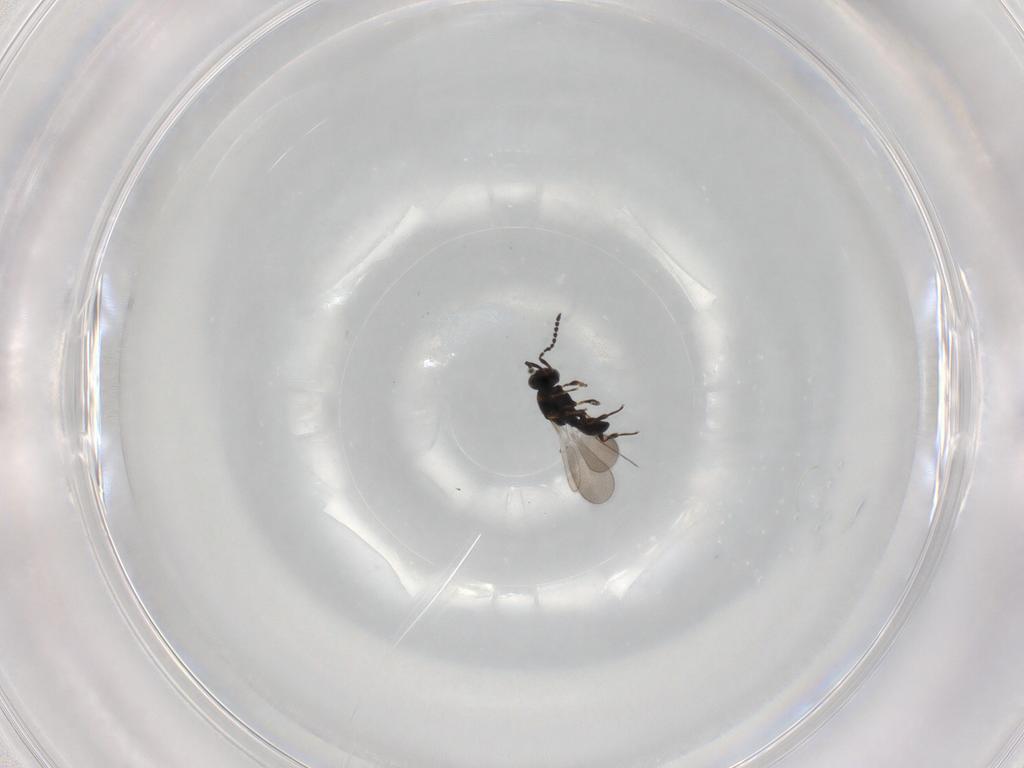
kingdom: Animalia
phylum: Arthropoda
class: Insecta
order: Hymenoptera
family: Platygastridae
